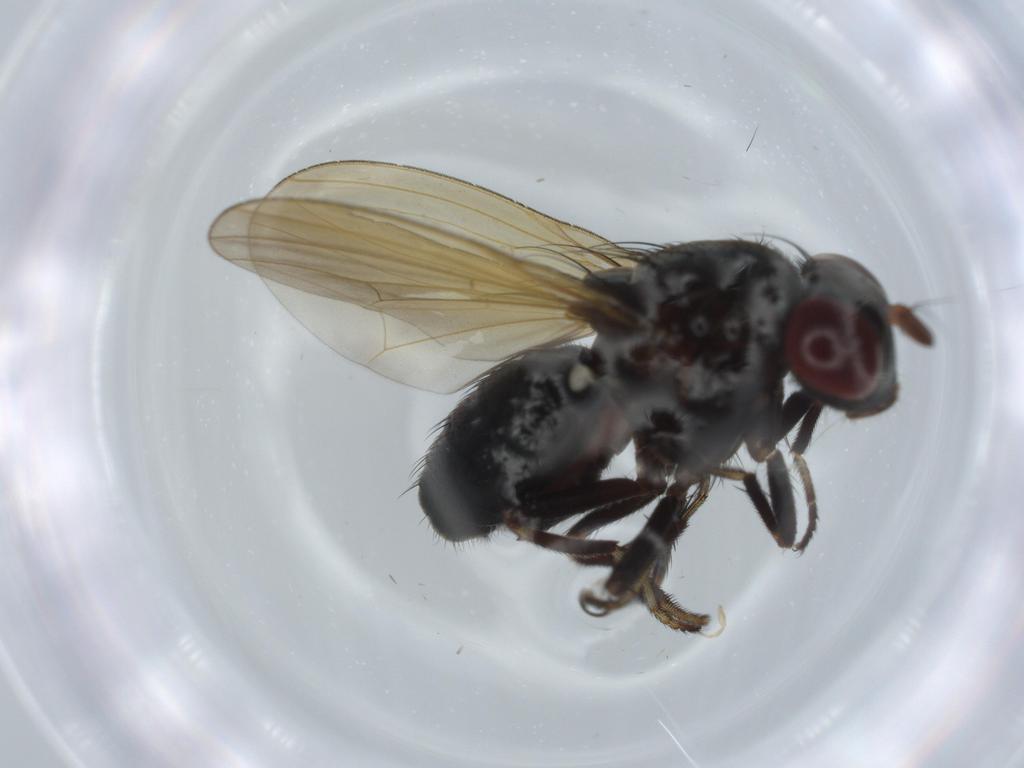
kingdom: Animalia
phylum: Arthropoda
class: Insecta
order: Diptera
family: Lauxaniidae
